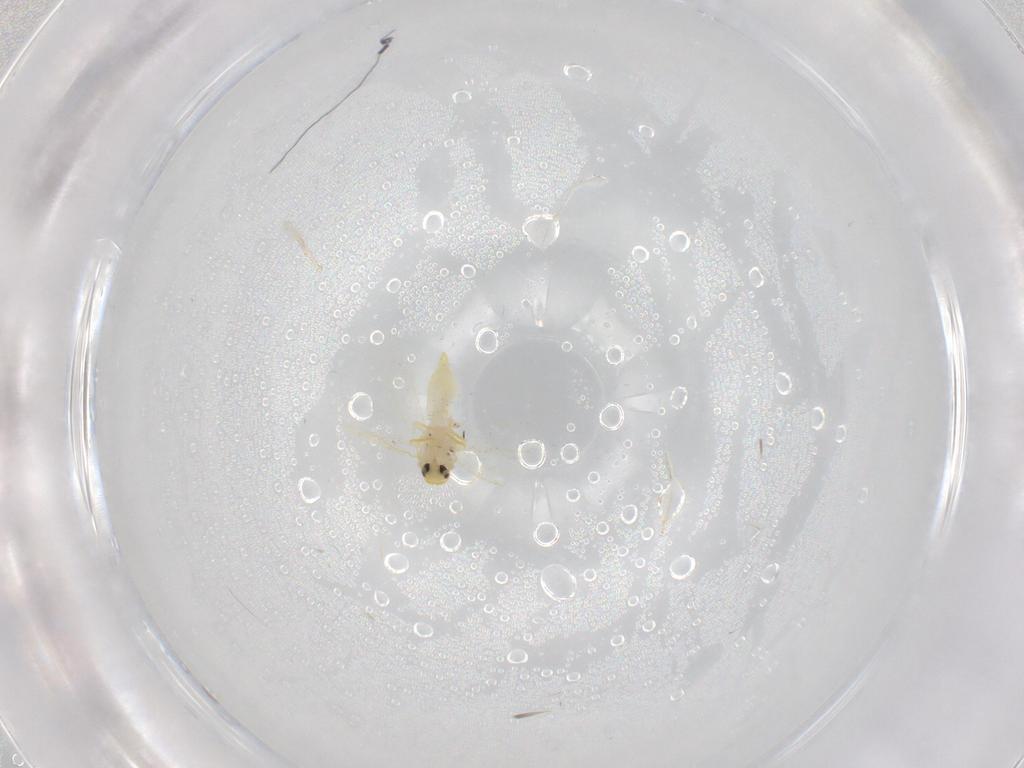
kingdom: Animalia
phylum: Arthropoda
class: Insecta
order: Hemiptera
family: Aleyrodidae
